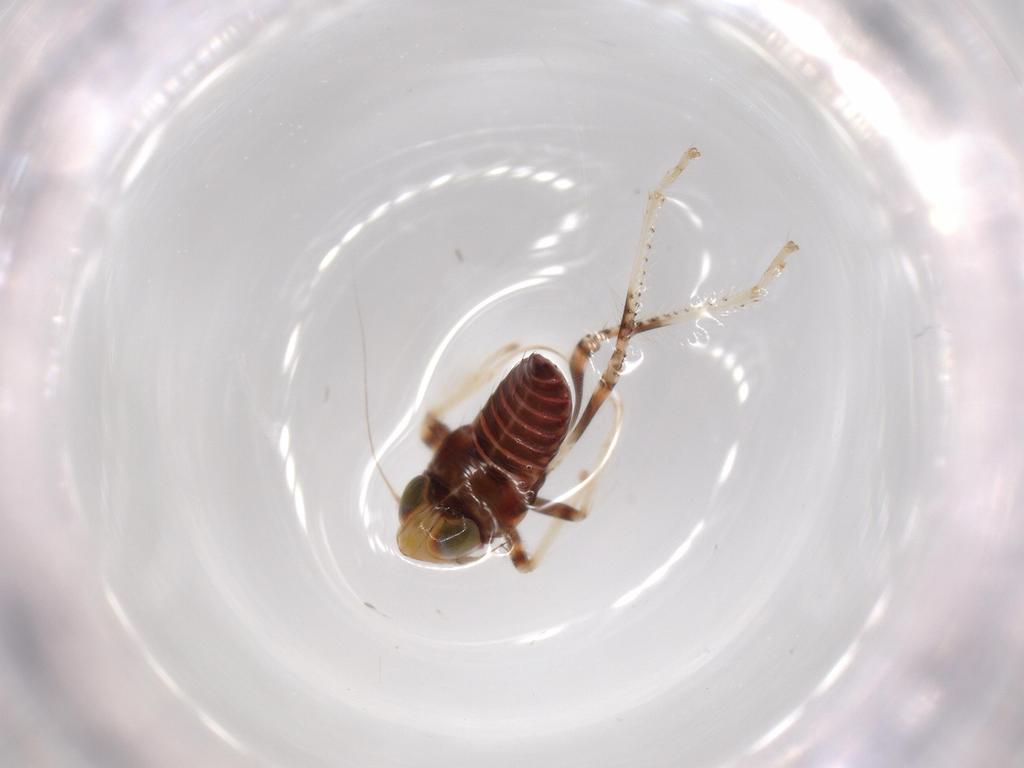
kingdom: Animalia
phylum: Arthropoda
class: Insecta
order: Hemiptera
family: Cicadellidae
